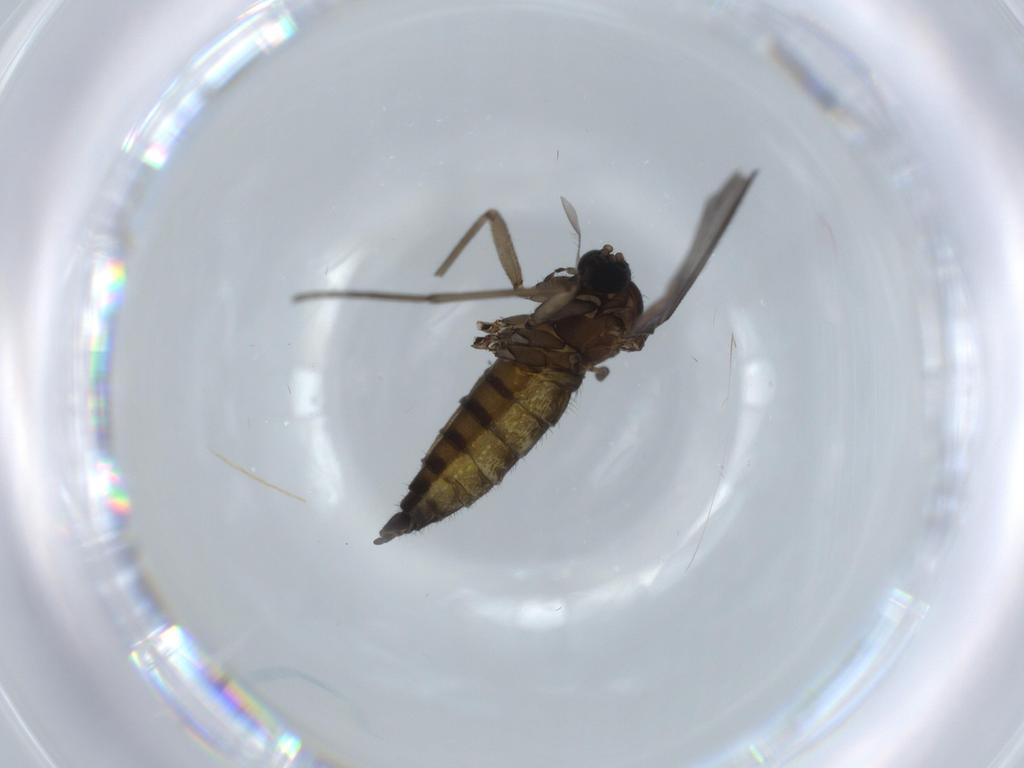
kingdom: Animalia
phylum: Arthropoda
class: Insecta
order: Diptera
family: Sciaridae
